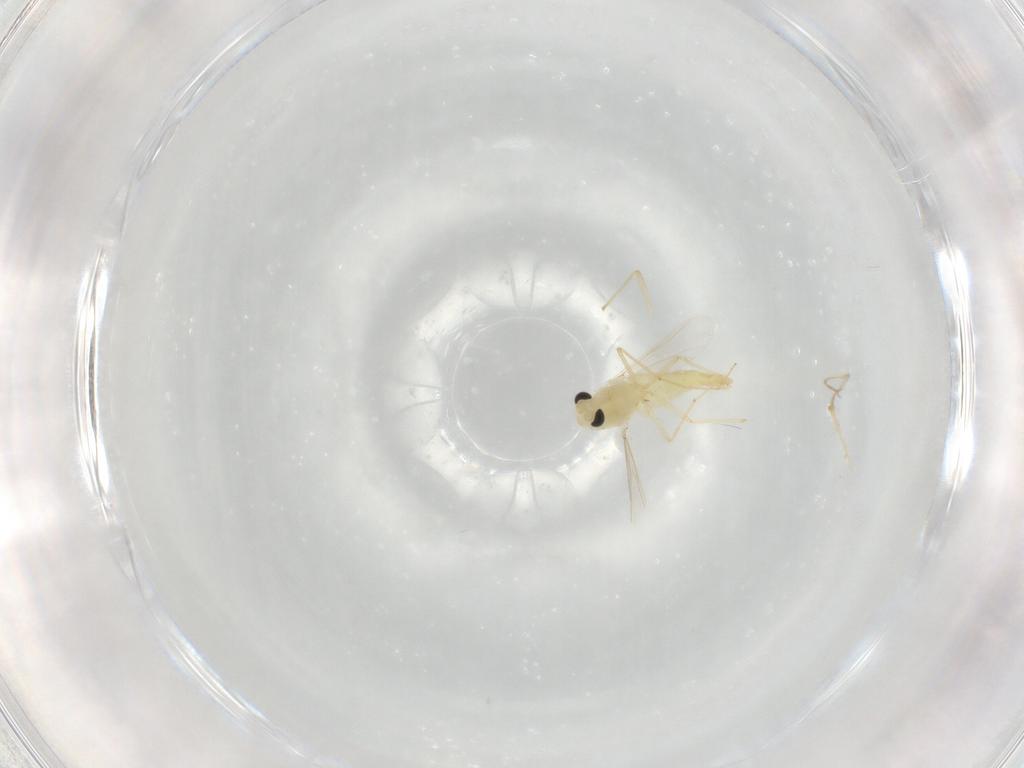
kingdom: Animalia
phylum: Arthropoda
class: Insecta
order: Diptera
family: Chironomidae
